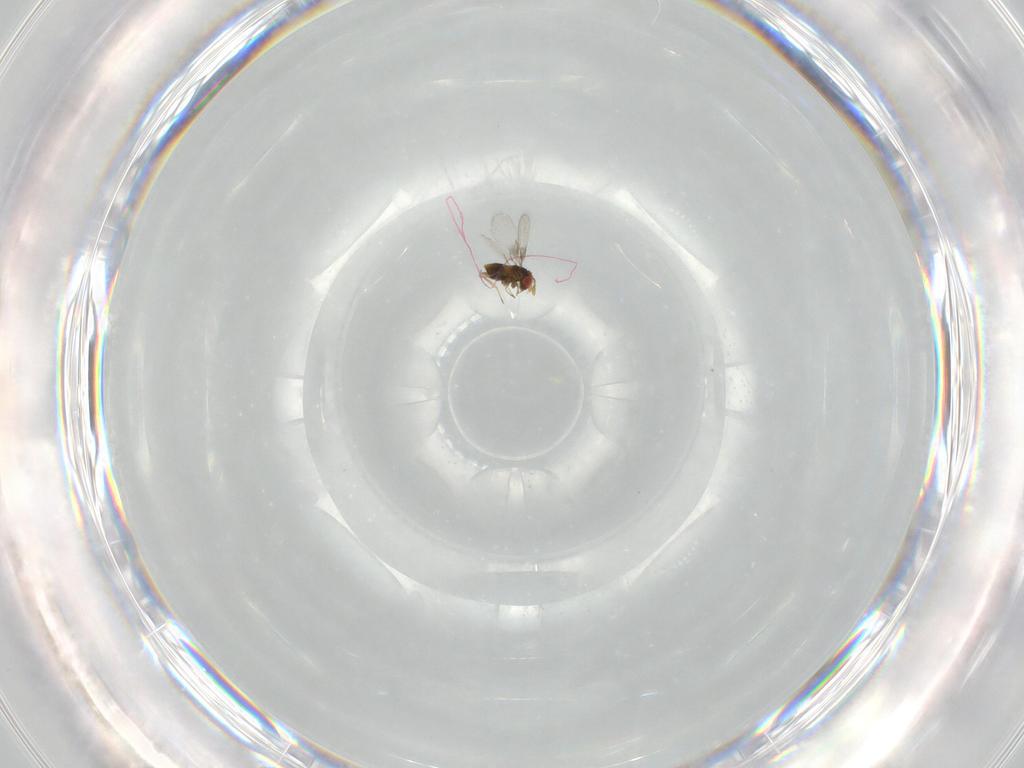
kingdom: Animalia
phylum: Arthropoda
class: Insecta
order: Hymenoptera
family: Trichogrammatidae
